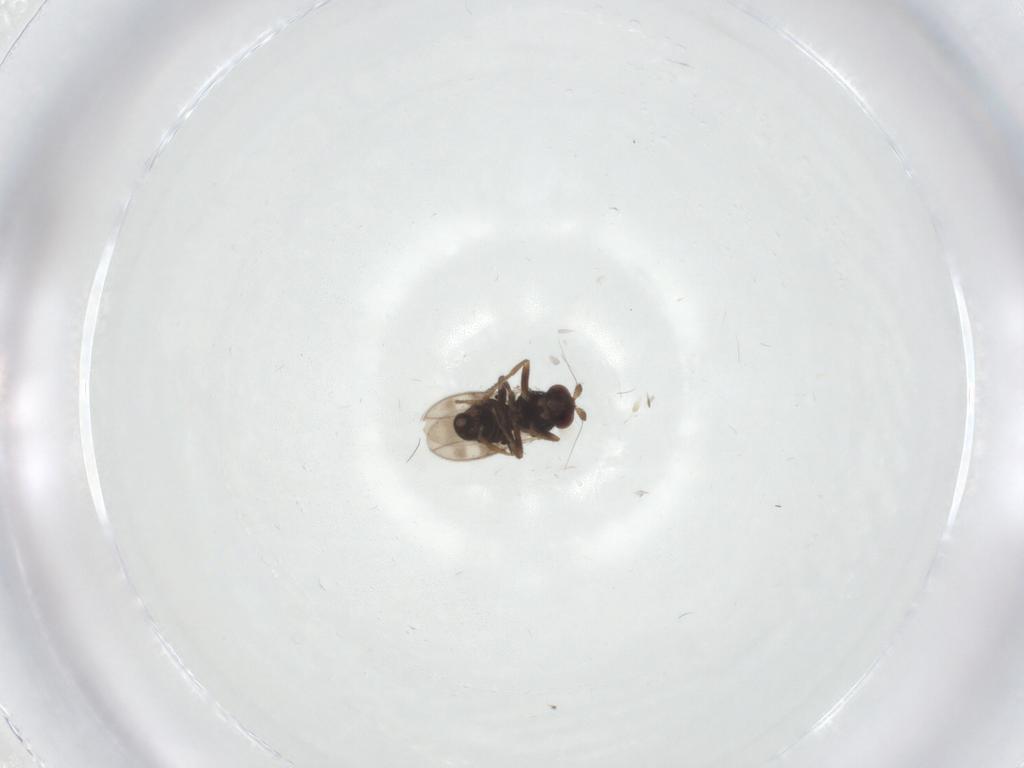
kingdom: Animalia
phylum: Arthropoda
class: Insecta
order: Diptera
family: Sphaeroceridae
